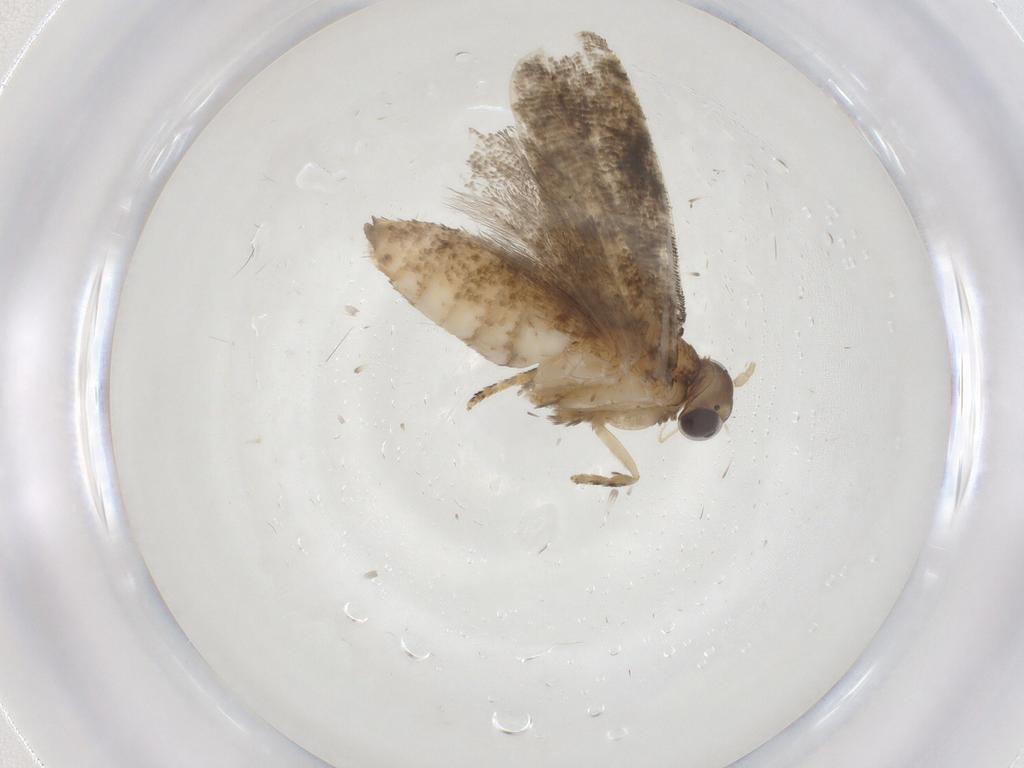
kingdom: Animalia
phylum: Arthropoda
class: Insecta
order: Lepidoptera
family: Tortricidae
